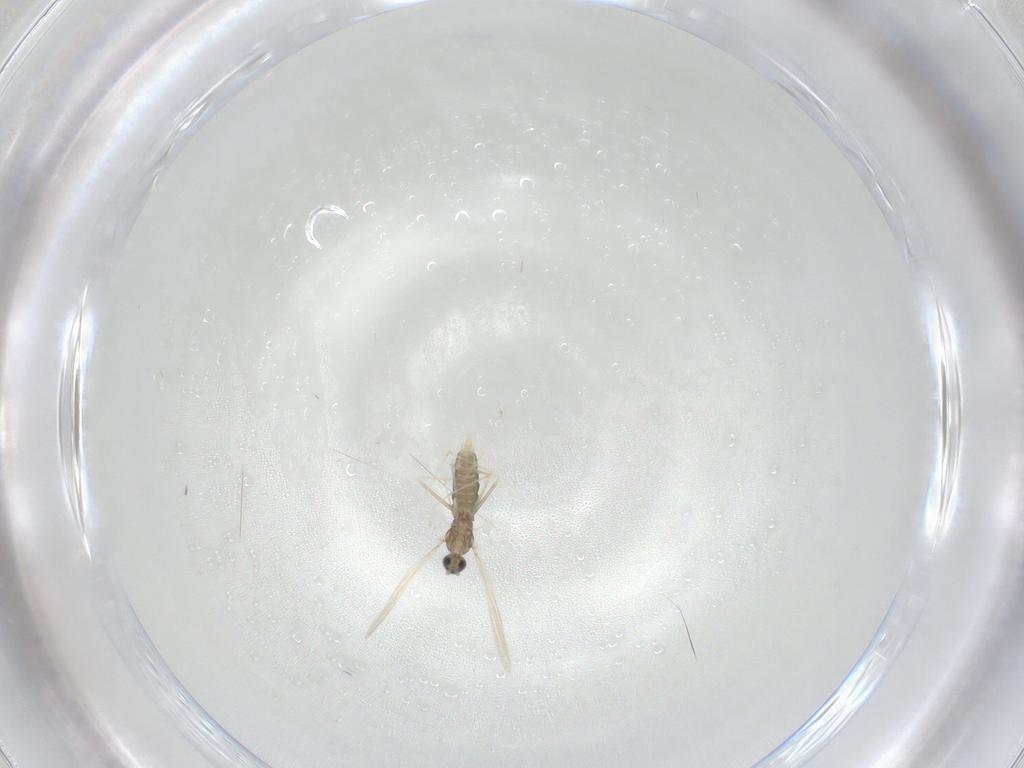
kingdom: Animalia
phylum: Arthropoda
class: Insecta
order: Diptera
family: Cecidomyiidae
